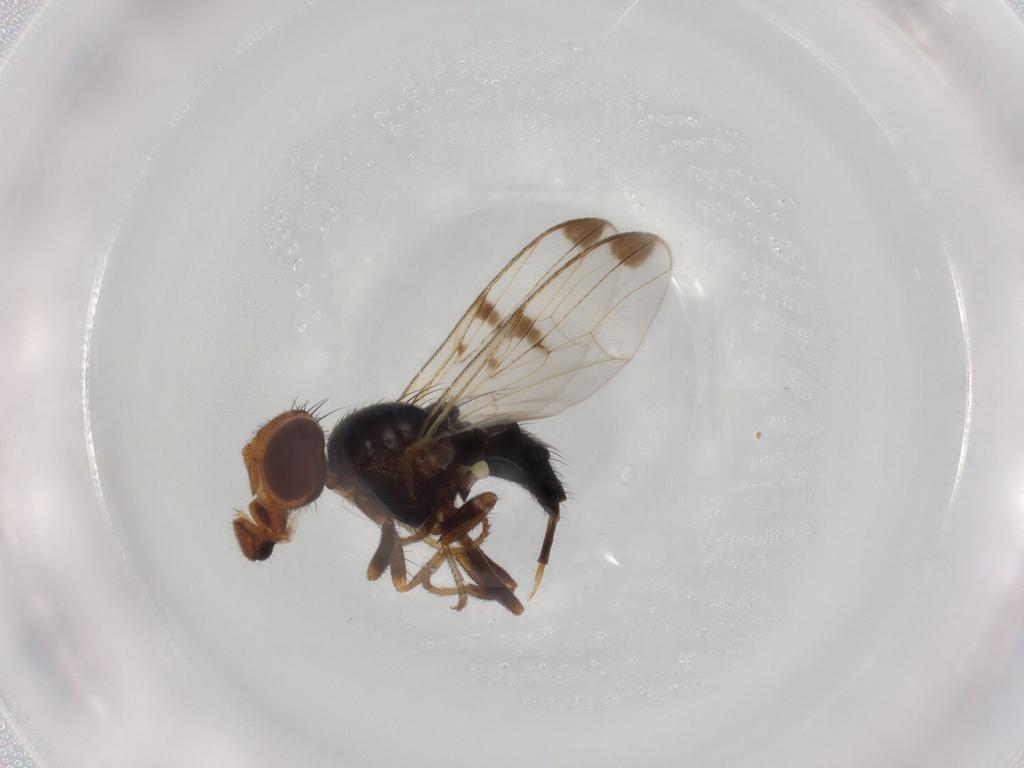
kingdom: Animalia
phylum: Arthropoda
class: Insecta
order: Diptera
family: Platystomatidae
